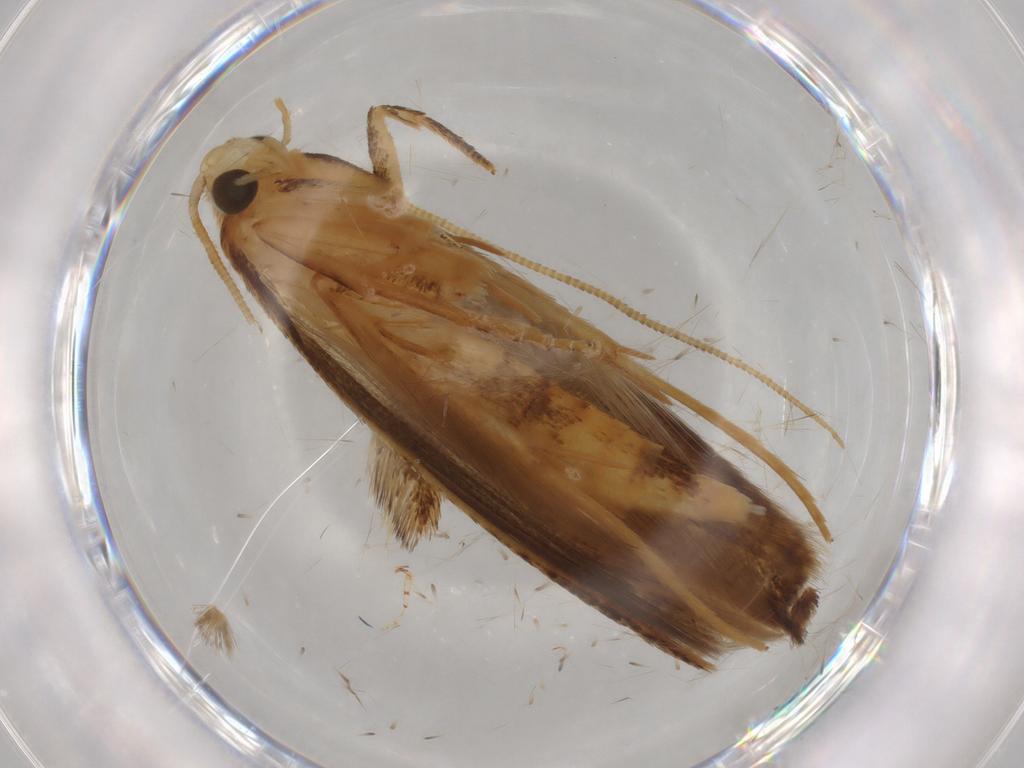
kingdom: Animalia
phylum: Arthropoda
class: Insecta
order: Lepidoptera
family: Tineidae
